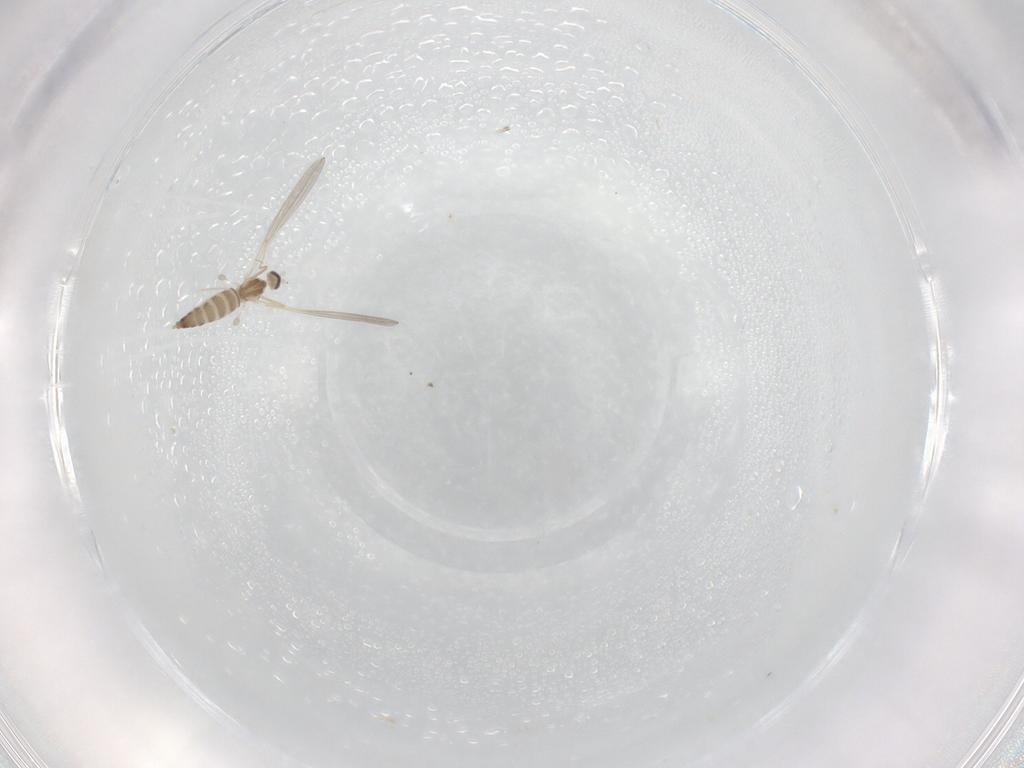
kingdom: Animalia
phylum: Arthropoda
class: Insecta
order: Diptera
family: Cecidomyiidae
